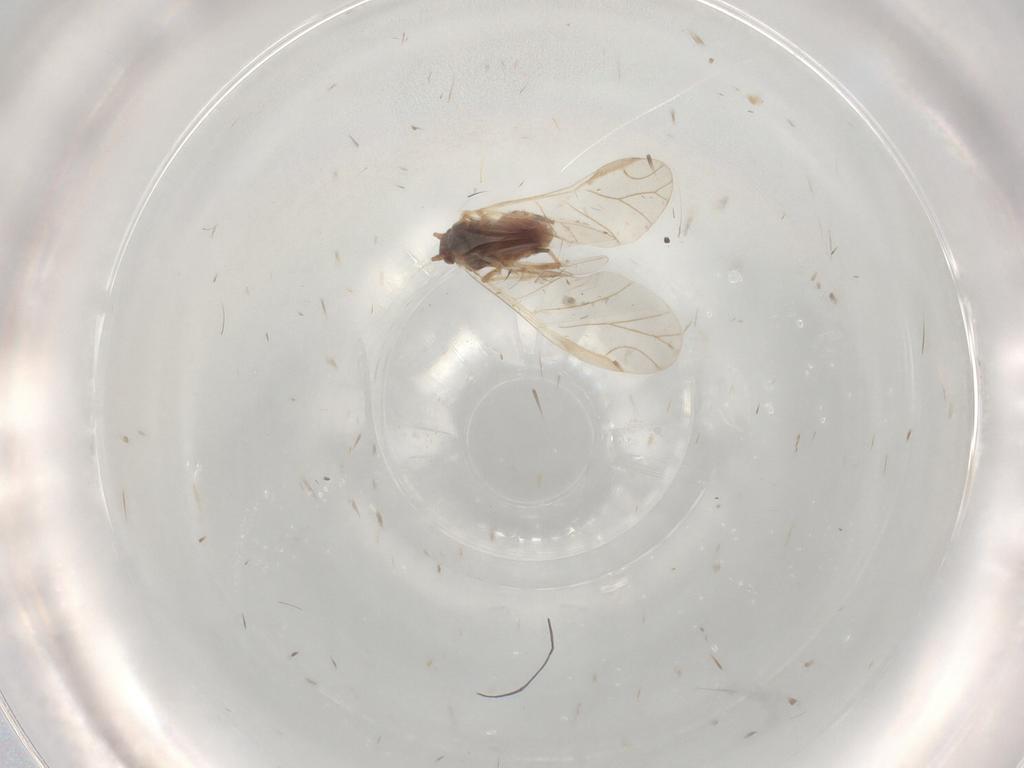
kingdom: Animalia
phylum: Arthropoda
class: Insecta
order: Hemiptera
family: Aphididae
